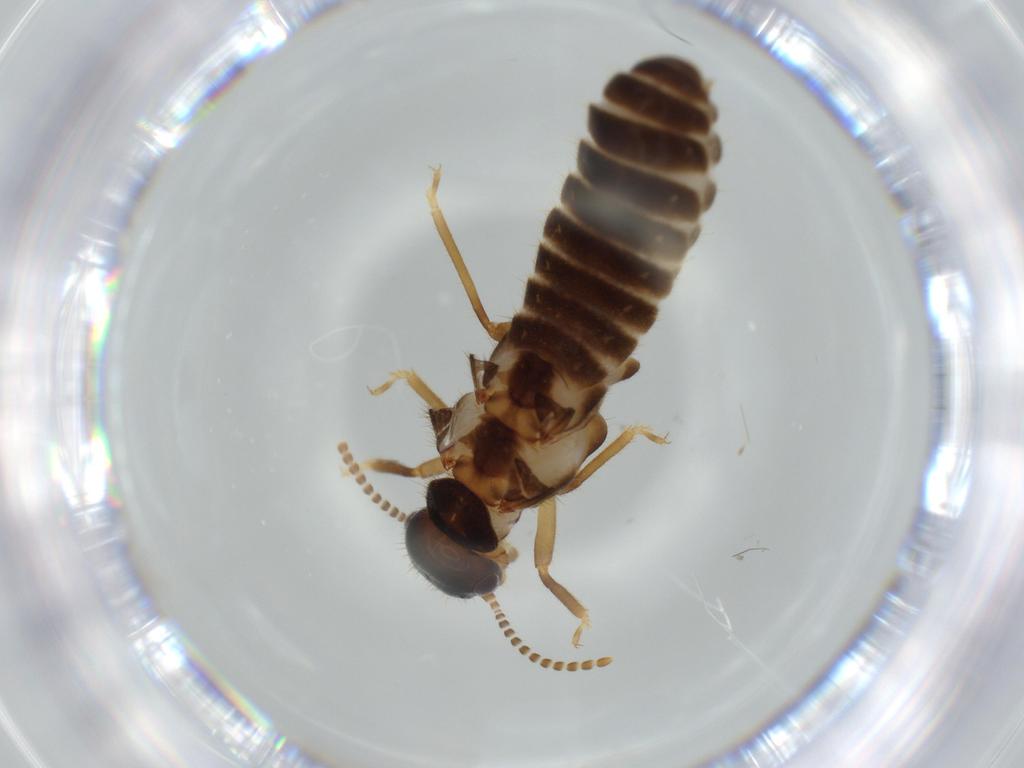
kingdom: Animalia
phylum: Arthropoda
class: Insecta
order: Blattodea
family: Termitidae
